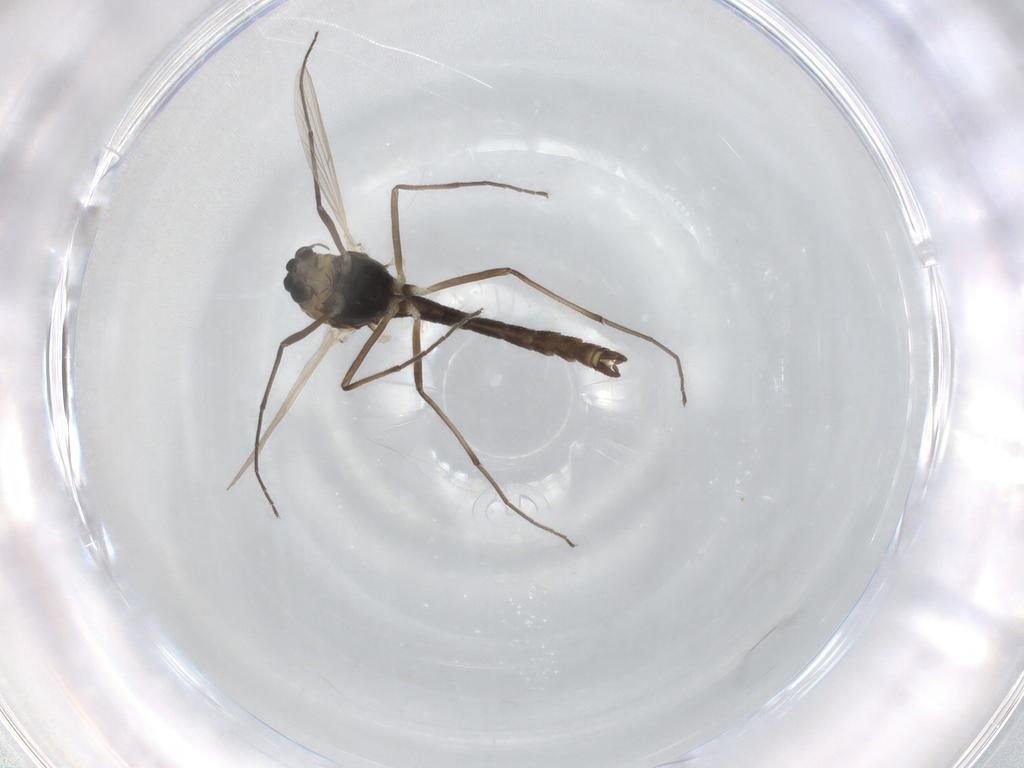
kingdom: Animalia
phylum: Arthropoda
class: Insecta
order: Diptera
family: Chironomidae
